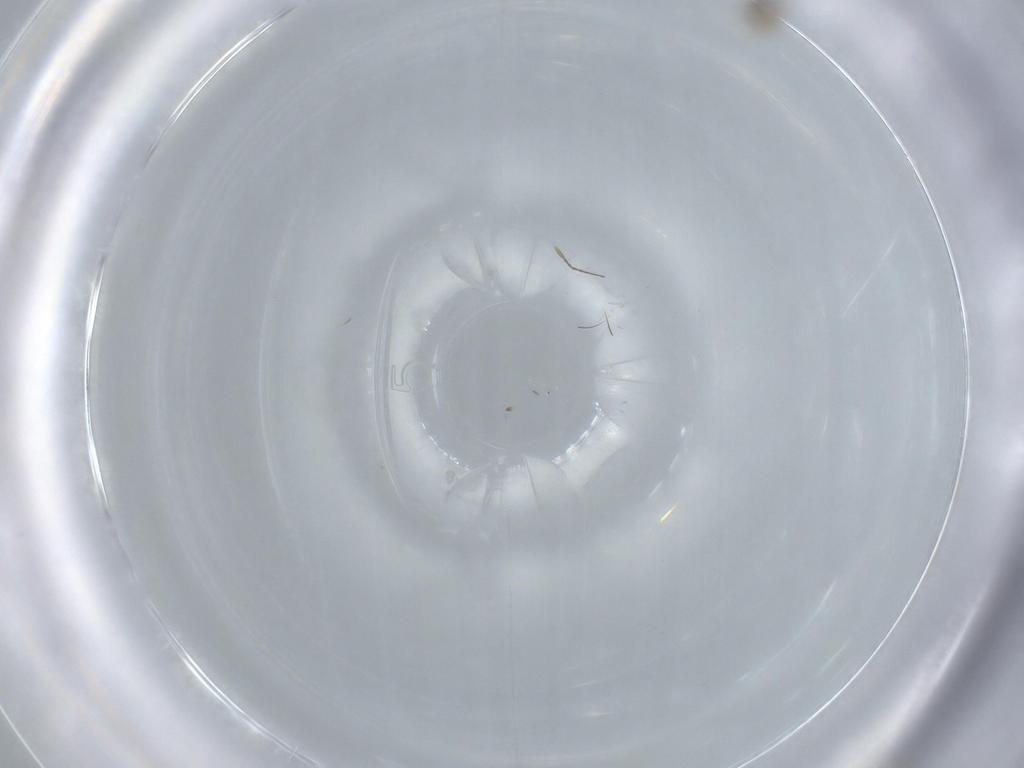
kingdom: Animalia
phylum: Arthropoda
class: Insecta
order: Diptera
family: Cecidomyiidae
